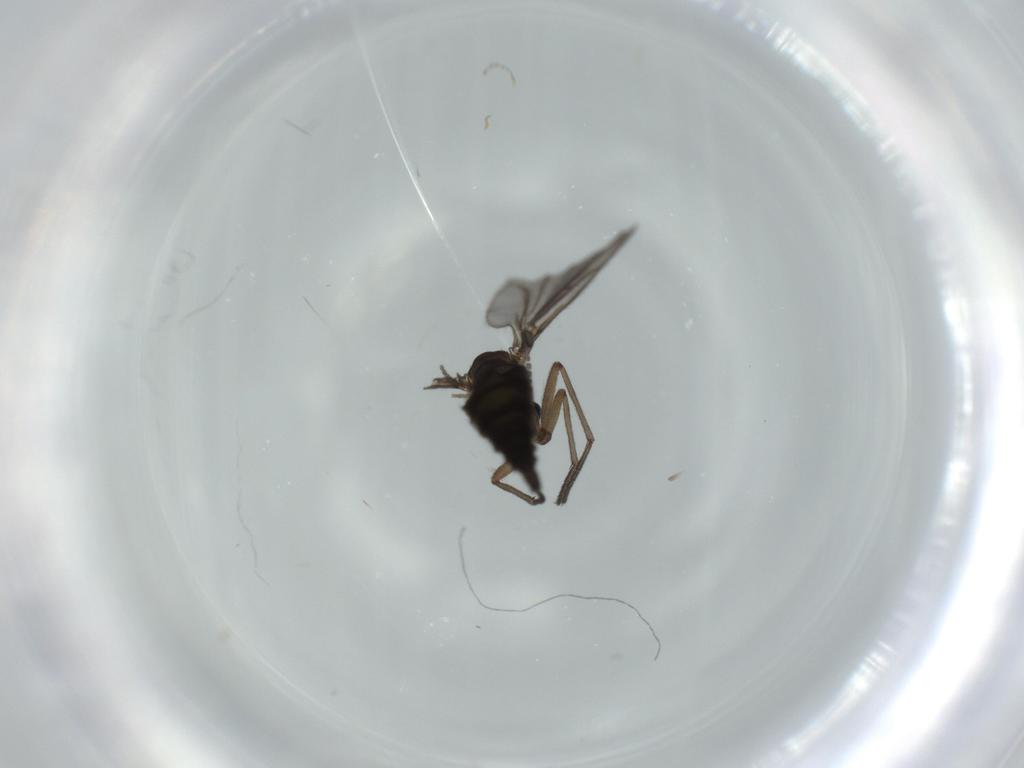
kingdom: Animalia
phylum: Arthropoda
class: Insecta
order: Diptera
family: Sciaridae
